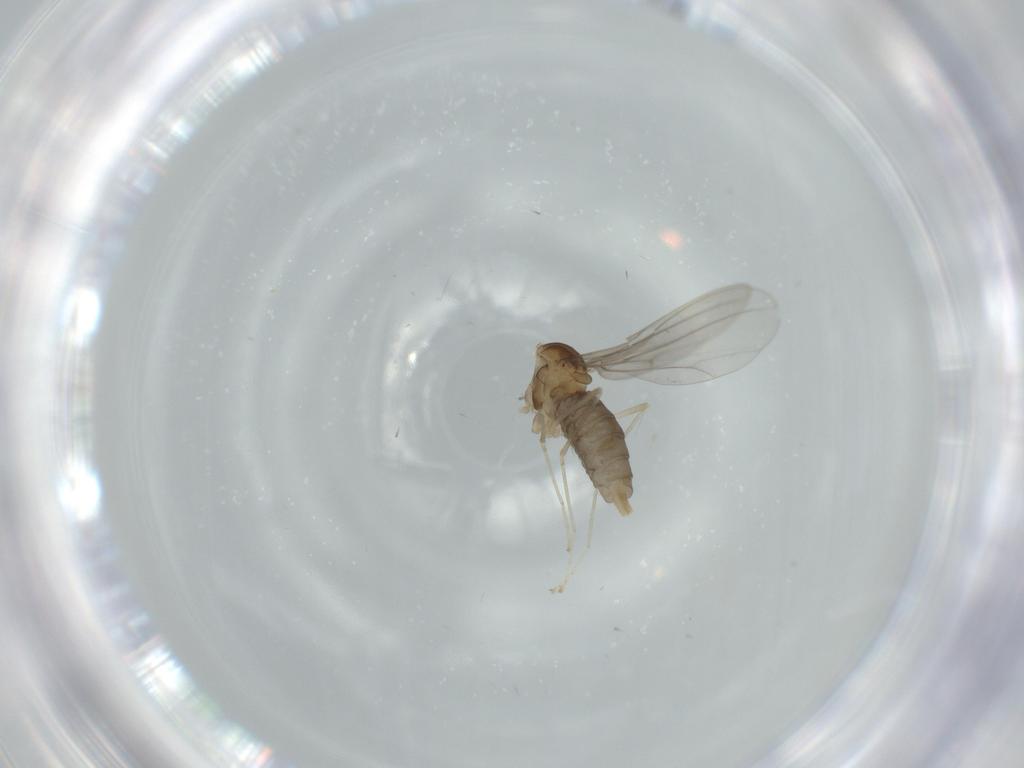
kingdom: Animalia
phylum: Arthropoda
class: Insecta
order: Diptera
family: Cecidomyiidae
